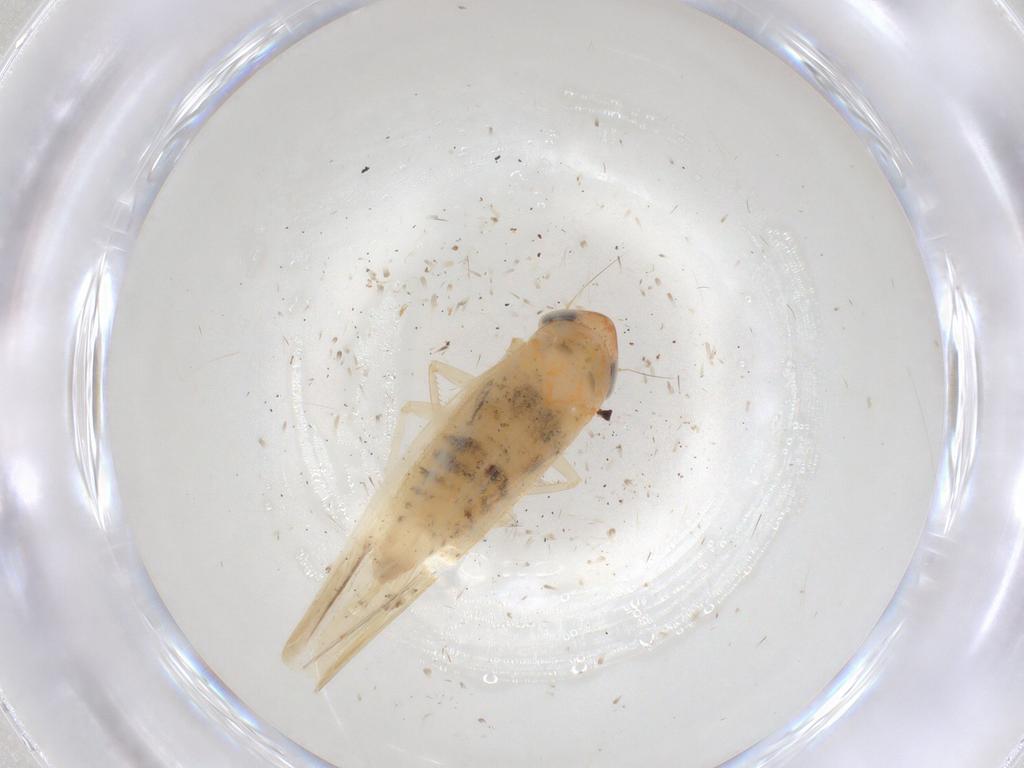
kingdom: Animalia
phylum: Arthropoda
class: Insecta
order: Hemiptera
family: Cicadellidae
